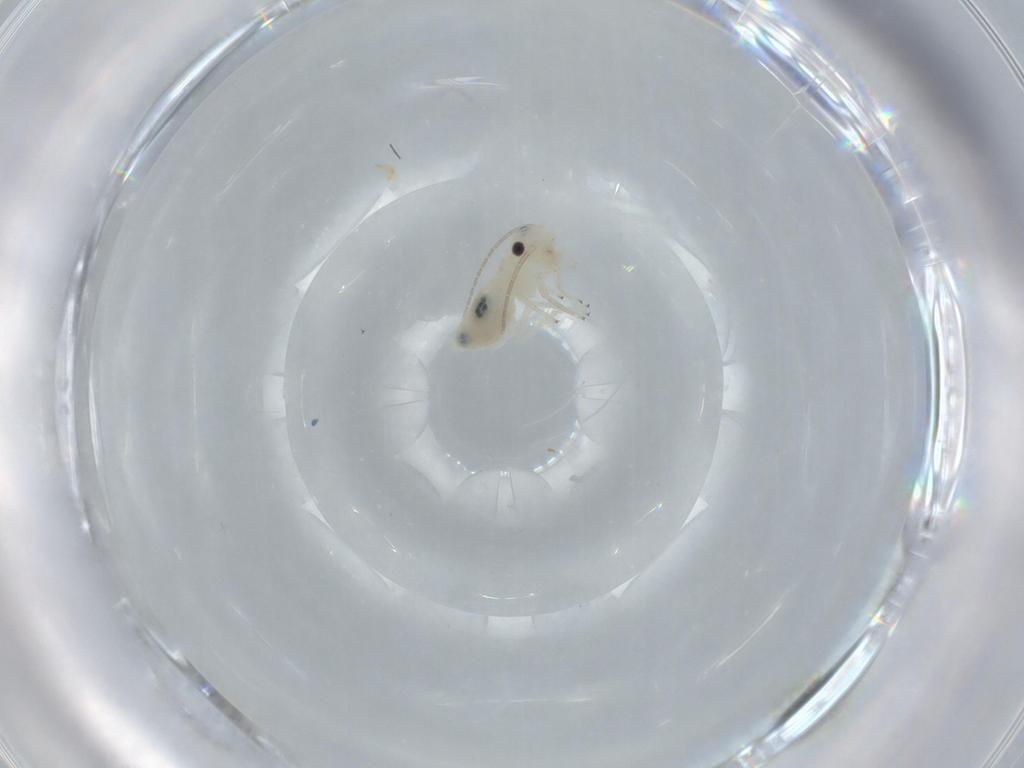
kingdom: Animalia
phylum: Arthropoda
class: Insecta
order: Psocodea
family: Caeciliusidae
